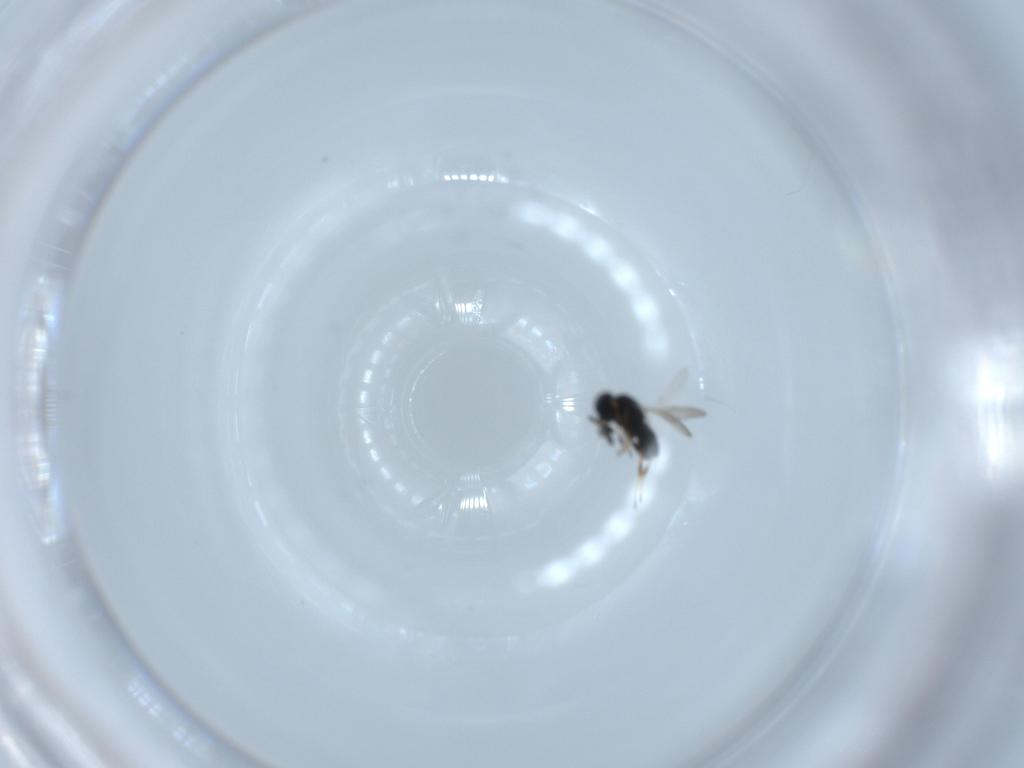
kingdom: Animalia
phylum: Arthropoda
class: Insecta
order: Hymenoptera
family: Scelionidae
